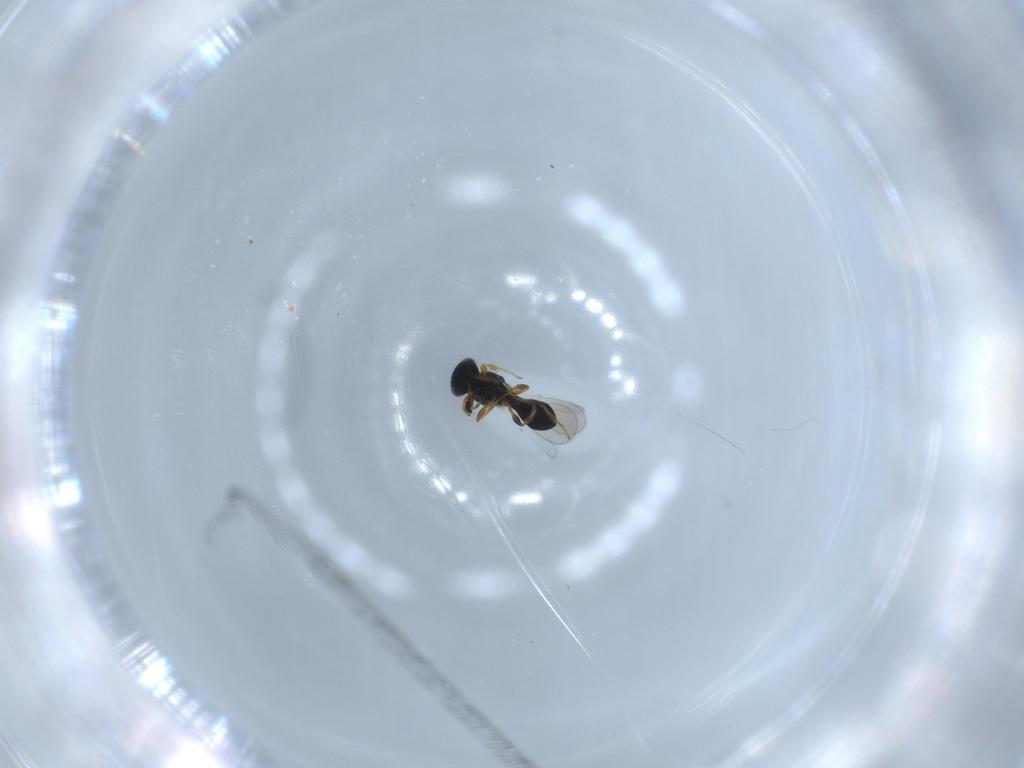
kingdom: Animalia
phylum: Arthropoda
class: Insecta
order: Hymenoptera
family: Platygastridae
